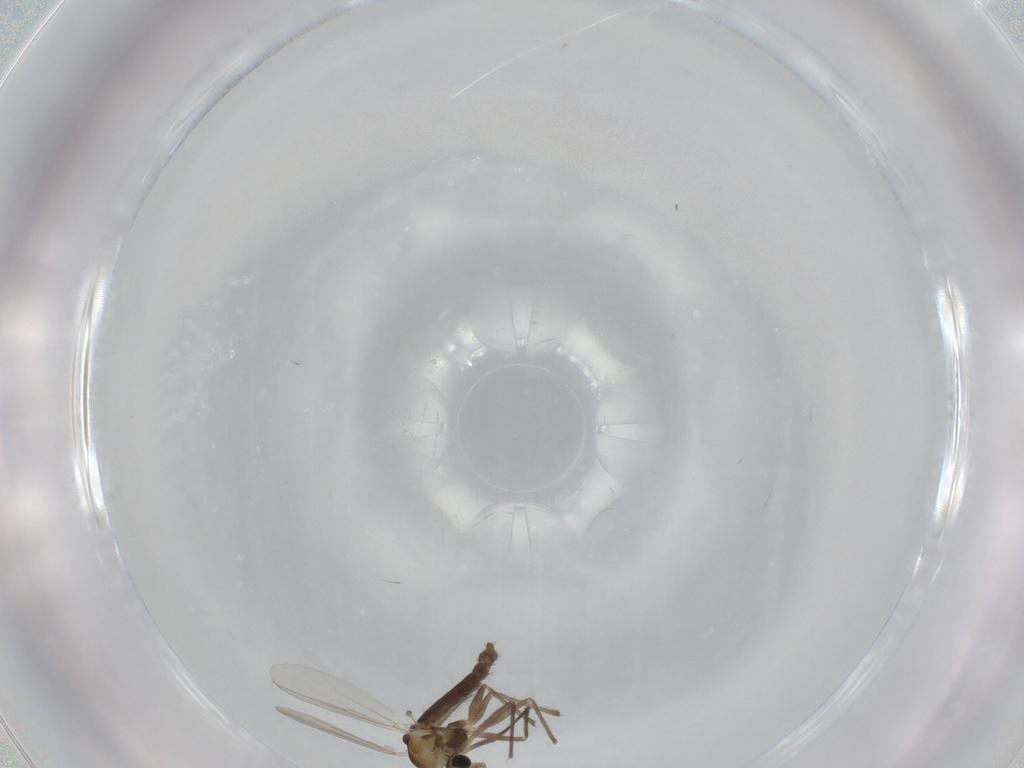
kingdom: Animalia
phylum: Arthropoda
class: Insecta
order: Diptera
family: Chironomidae
